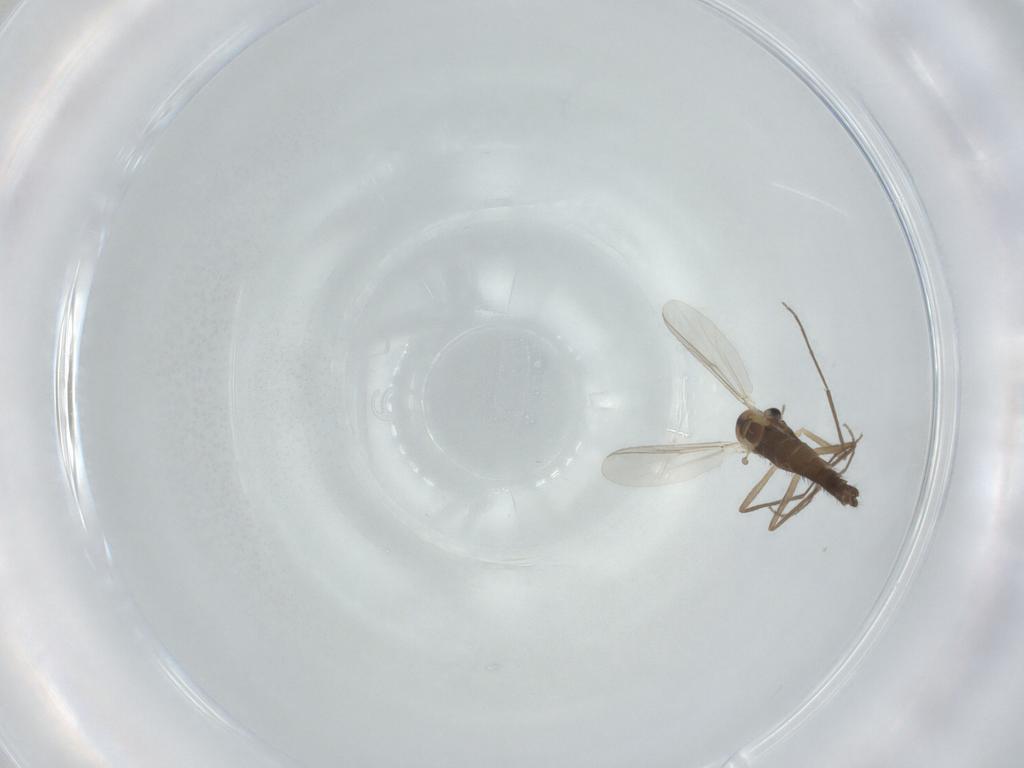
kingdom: Animalia
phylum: Arthropoda
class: Insecta
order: Diptera
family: Chironomidae
